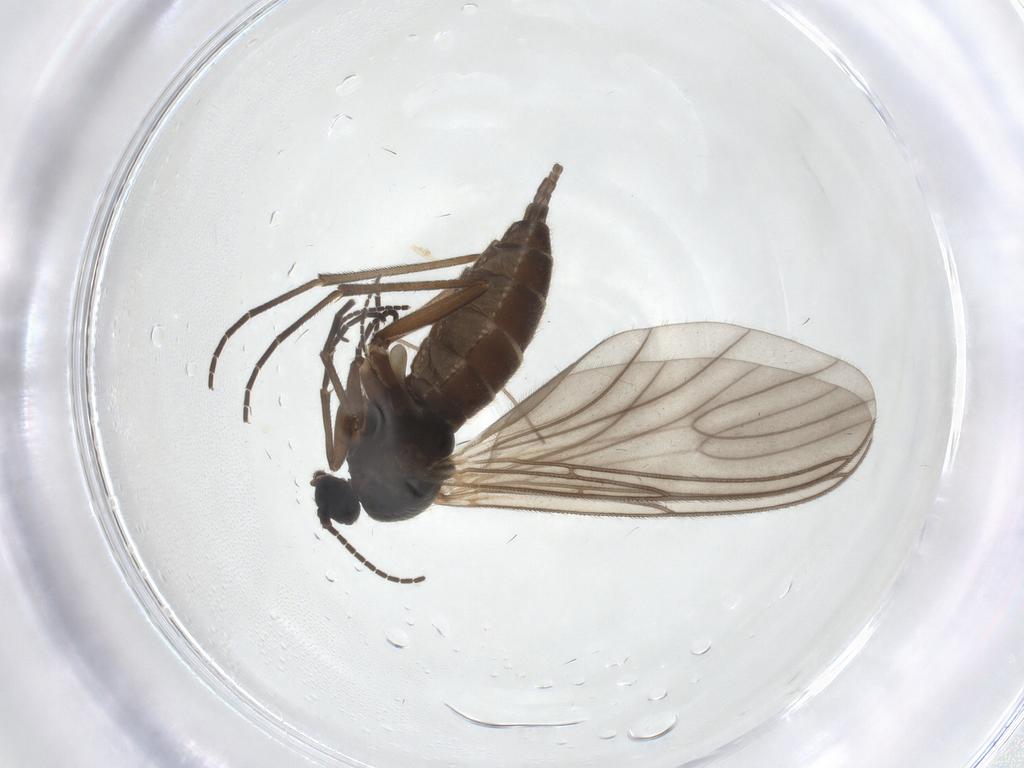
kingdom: Animalia
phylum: Arthropoda
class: Insecta
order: Diptera
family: Sciaridae
